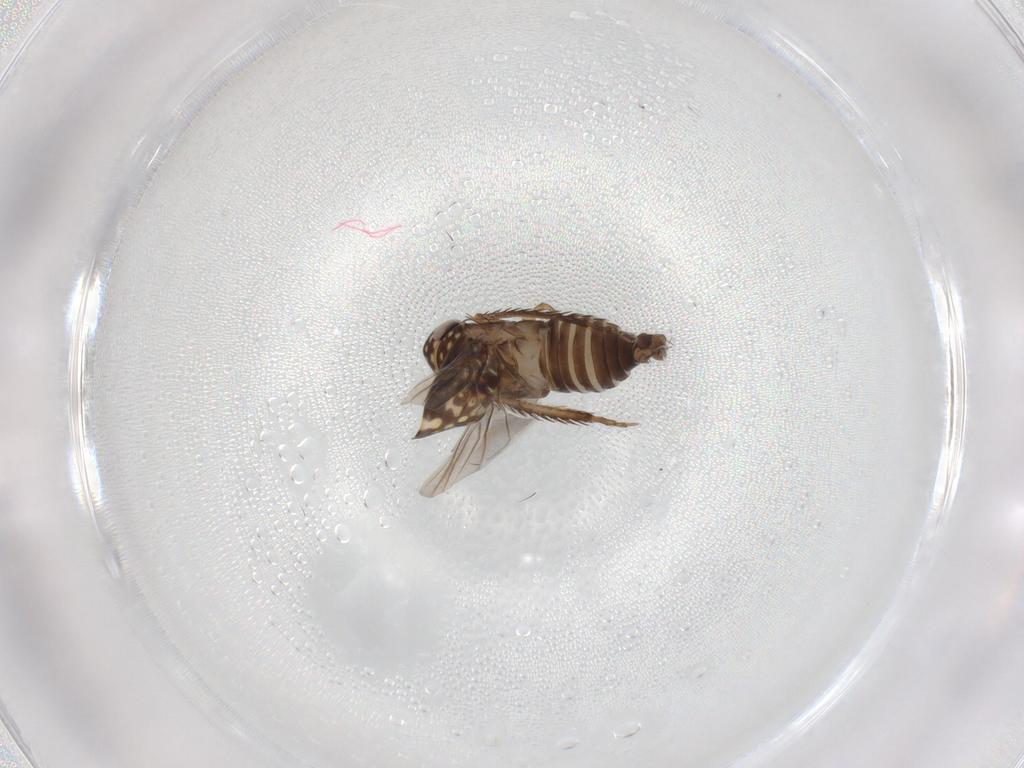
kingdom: Animalia
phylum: Arthropoda
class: Insecta
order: Hemiptera
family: Cicadellidae
